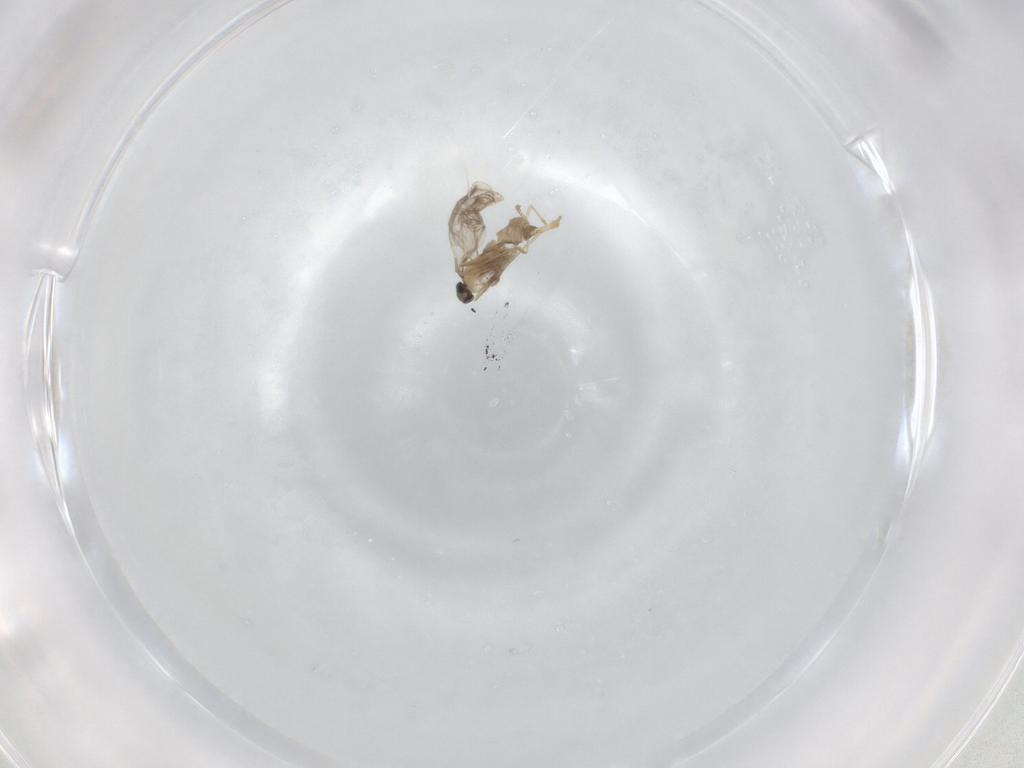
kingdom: Animalia
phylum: Arthropoda
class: Insecta
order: Diptera
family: Cecidomyiidae
